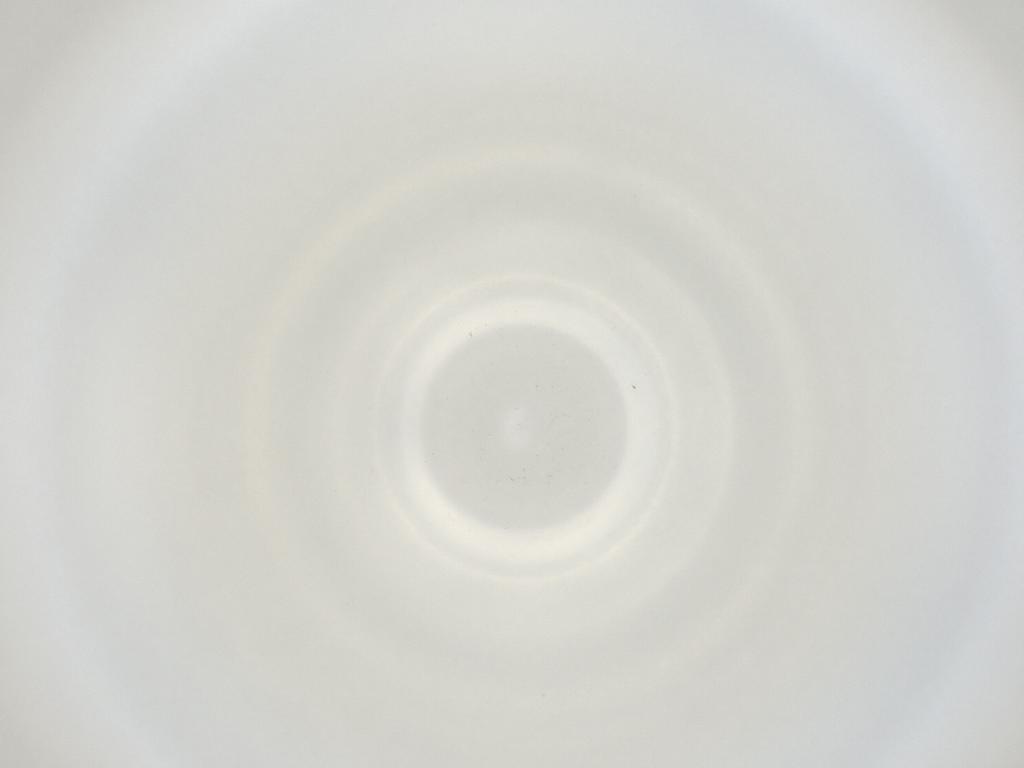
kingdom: Animalia
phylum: Arthropoda
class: Insecta
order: Diptera
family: Cecidomyiidae
